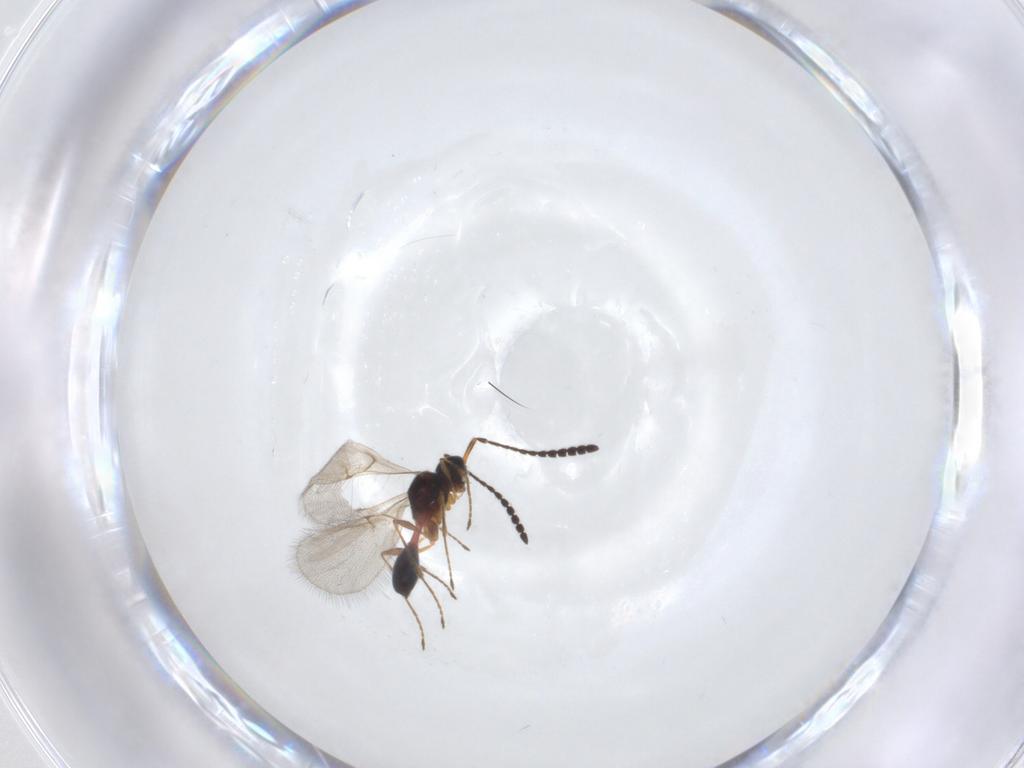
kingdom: Animalia
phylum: Arthropoda
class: Insecta
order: Hymenoptera
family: Diapriidae
